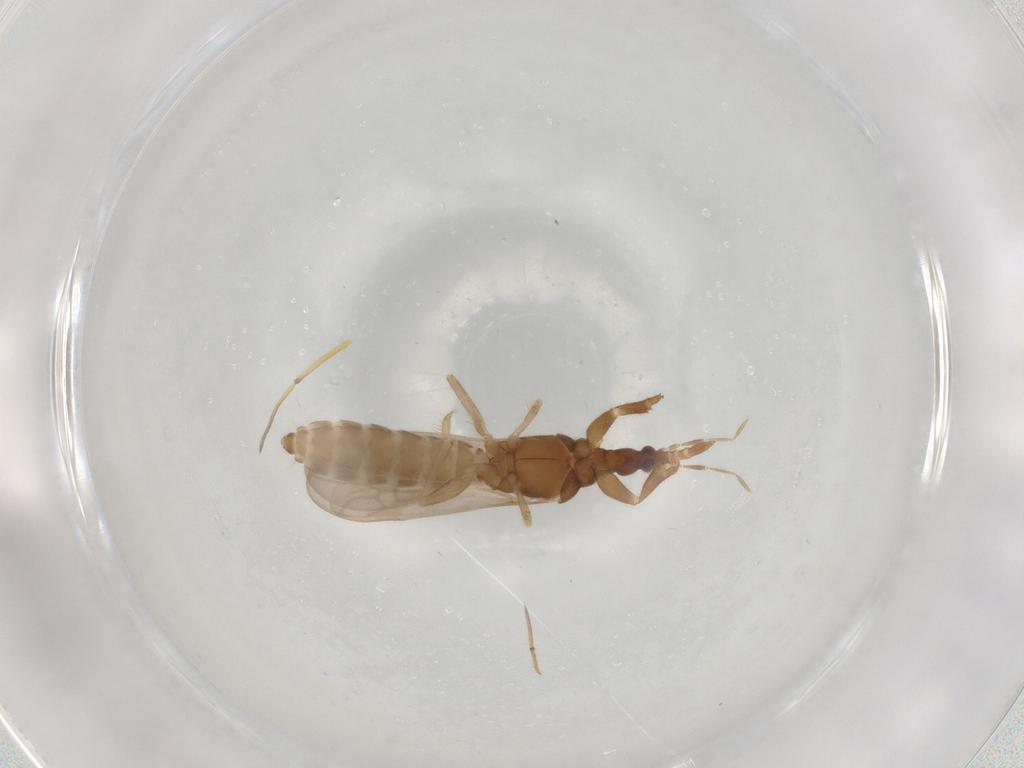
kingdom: Animalia
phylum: Arthropoda
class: Insecta
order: Hemiptera
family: Enicocephalidae
